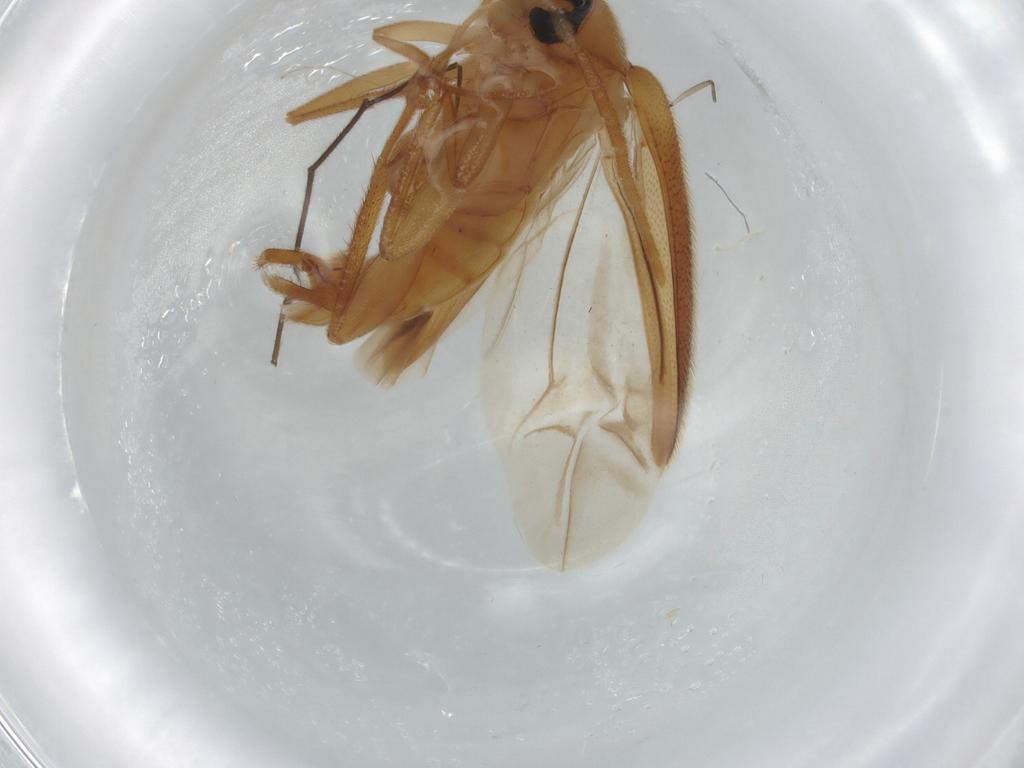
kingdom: Animalia
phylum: Arthropoda
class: Insecta
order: Coleoptera
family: Scraptiidae
